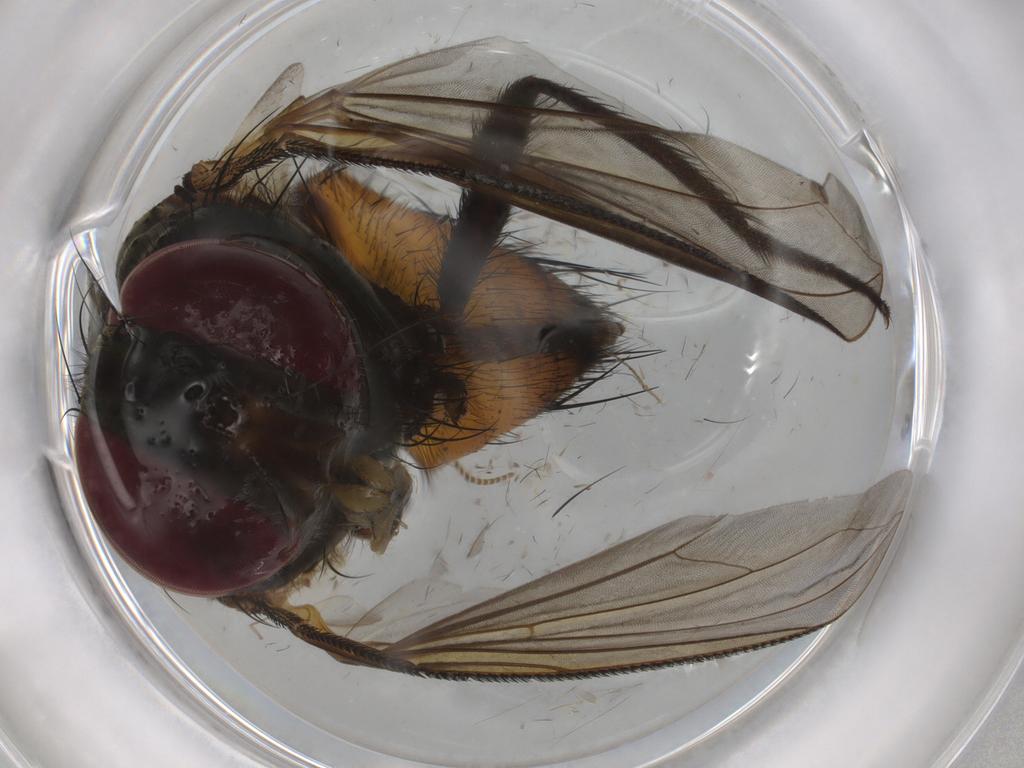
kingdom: Animalia
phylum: Arthropoda
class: Insecta
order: Diptera
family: Tachinidae
